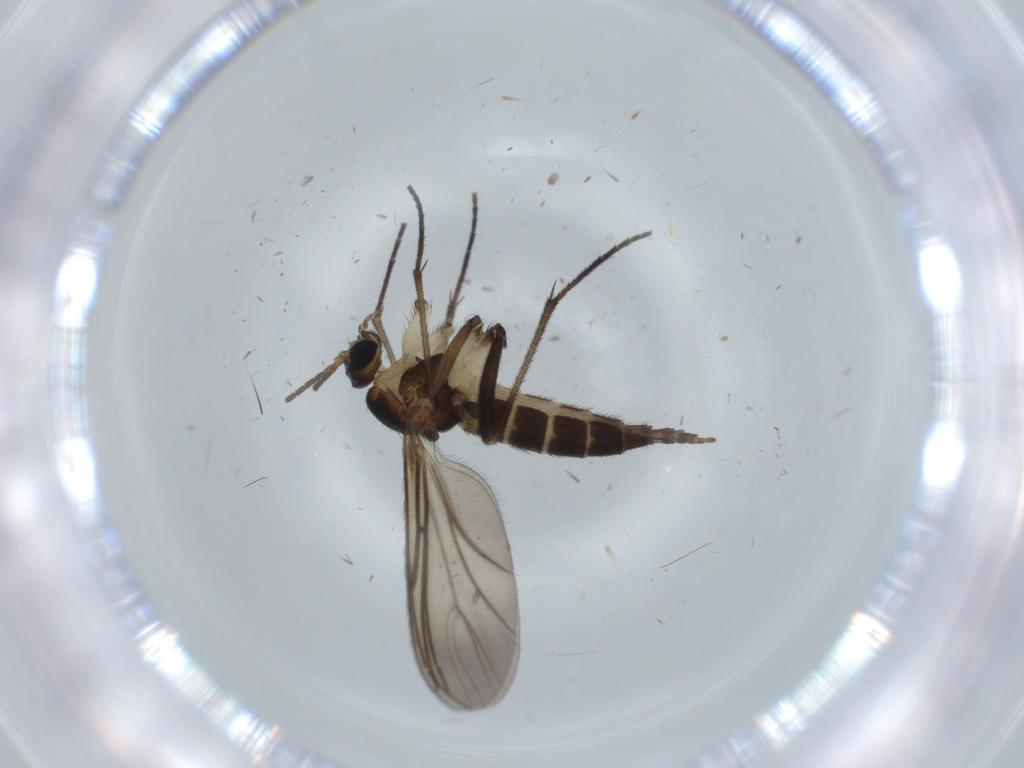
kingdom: Animalia
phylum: Arthropoda
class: Insecta
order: Diptera
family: Sciaridae
